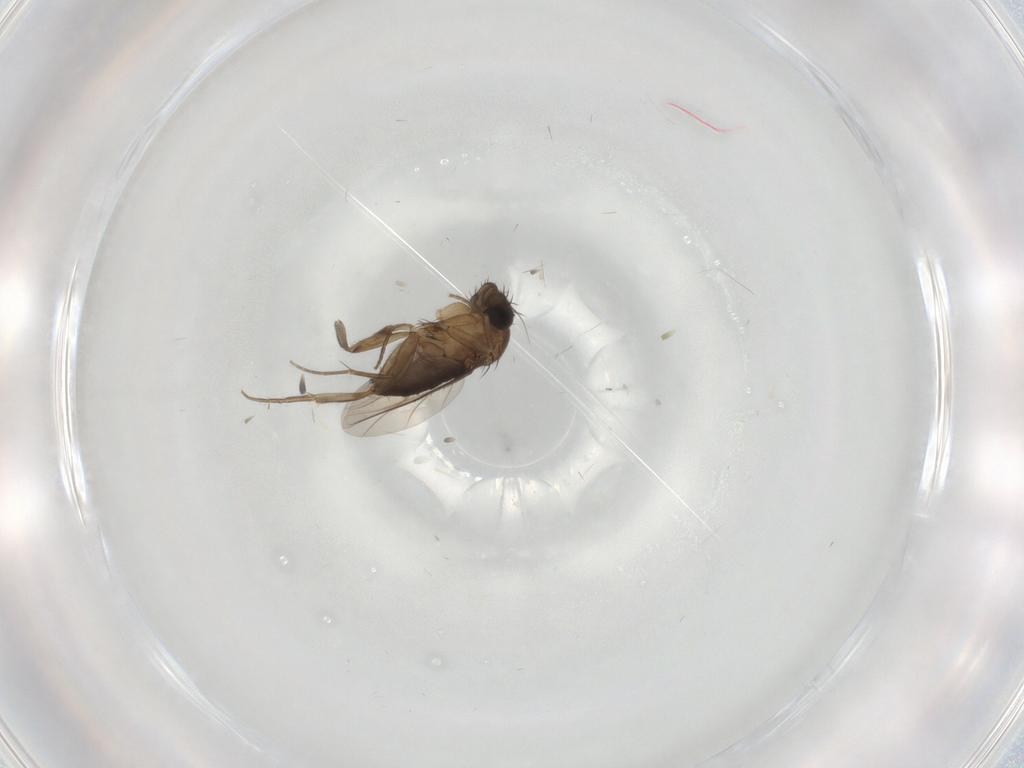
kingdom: Animalia
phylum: Arthropoda
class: Insecta
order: Diptera
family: Phoridae
